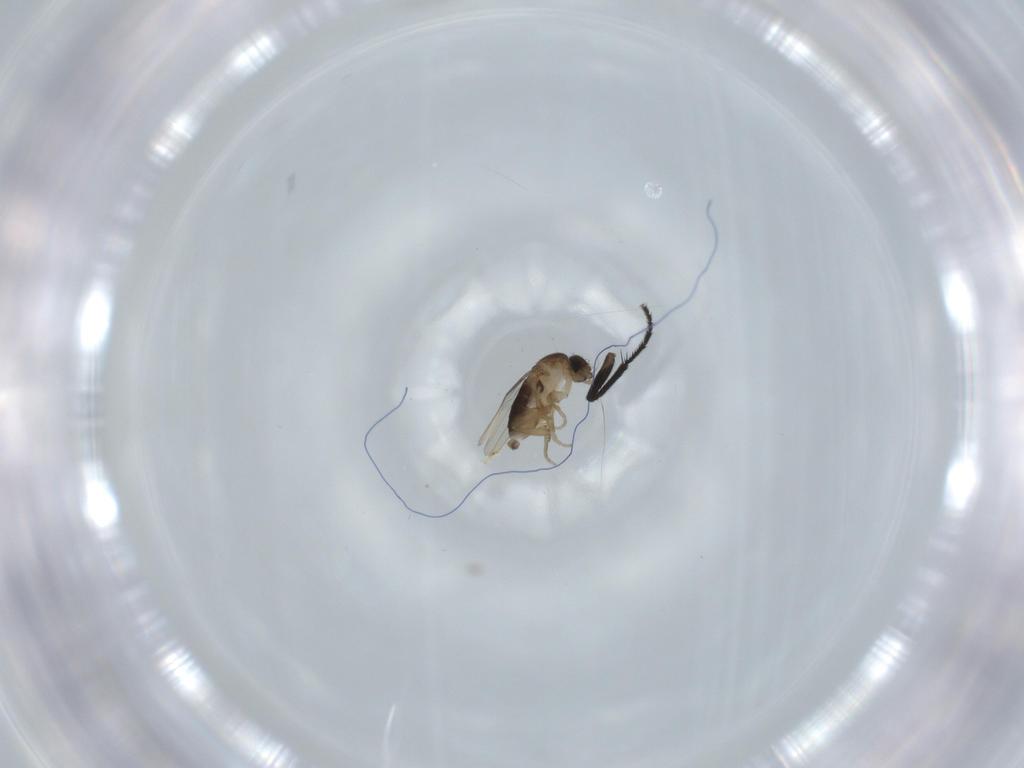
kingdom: Animalia
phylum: Arthropoda
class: Insecta
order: Diptera
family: Phoridae
